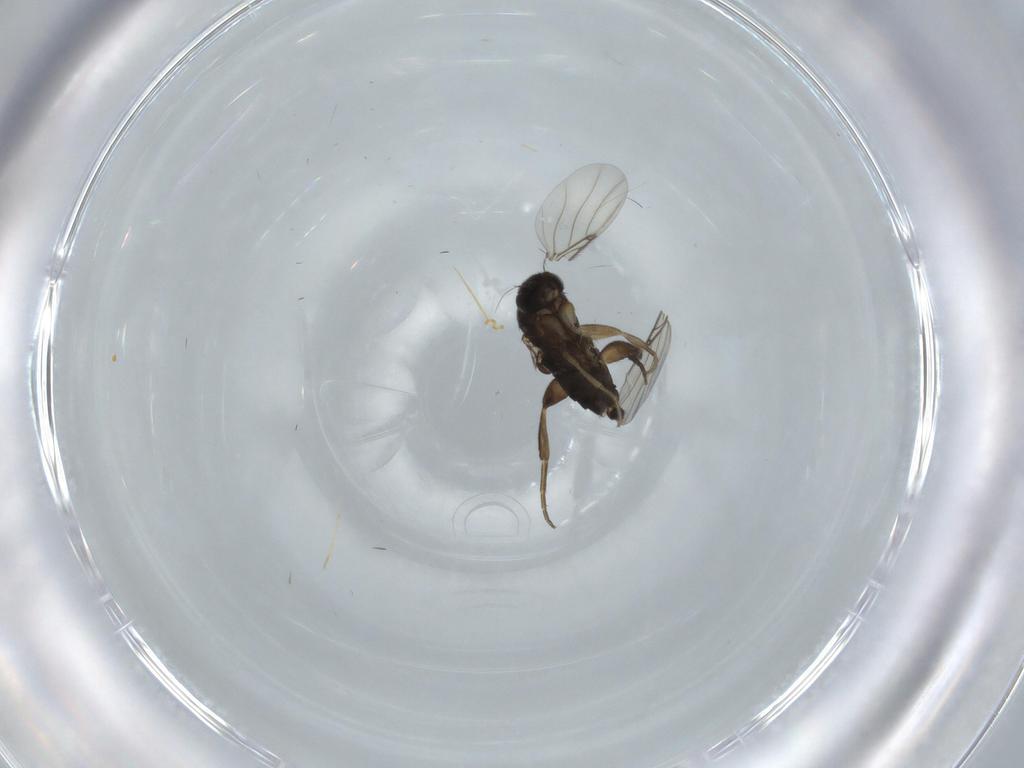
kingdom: Animalia
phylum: Arthropoda
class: Insecta
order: Diptera
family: Phoridae
